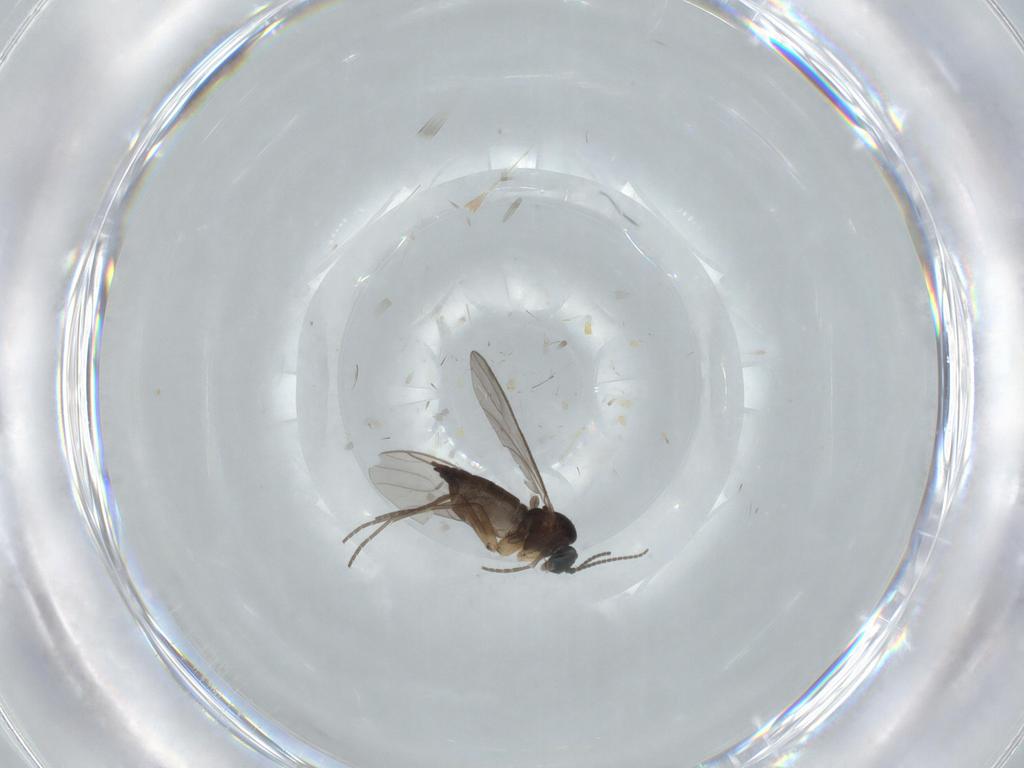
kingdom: Animalia
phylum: Arthropoda
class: Insecta
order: Diptera
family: Sciaridae
